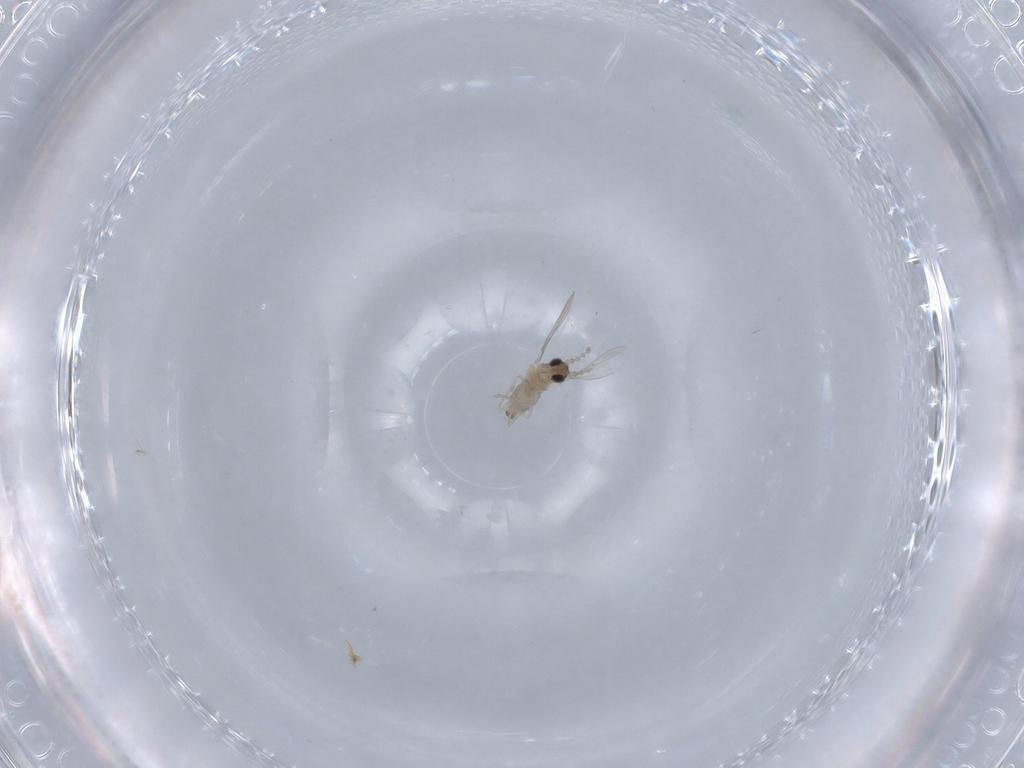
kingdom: Animalia
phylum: Arthropoda
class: Insecta
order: Diptera
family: Cecidomyiidae
